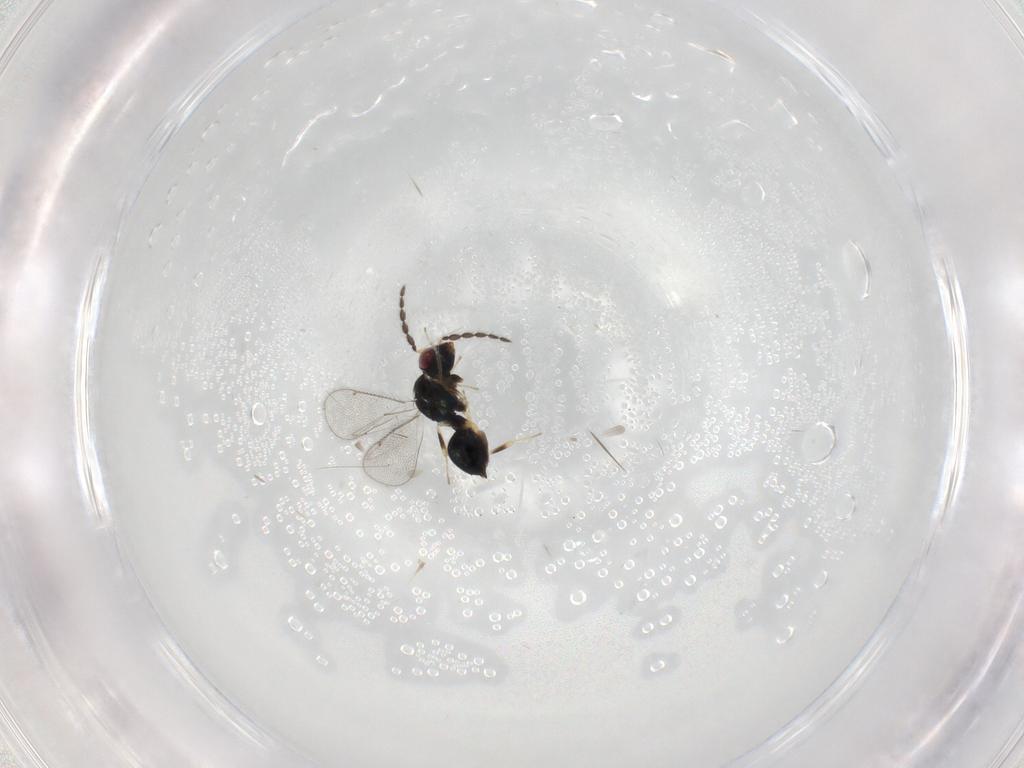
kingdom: Animalia
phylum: Arthropoda
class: Insecta
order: Hymenoptera
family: Eulophidae
